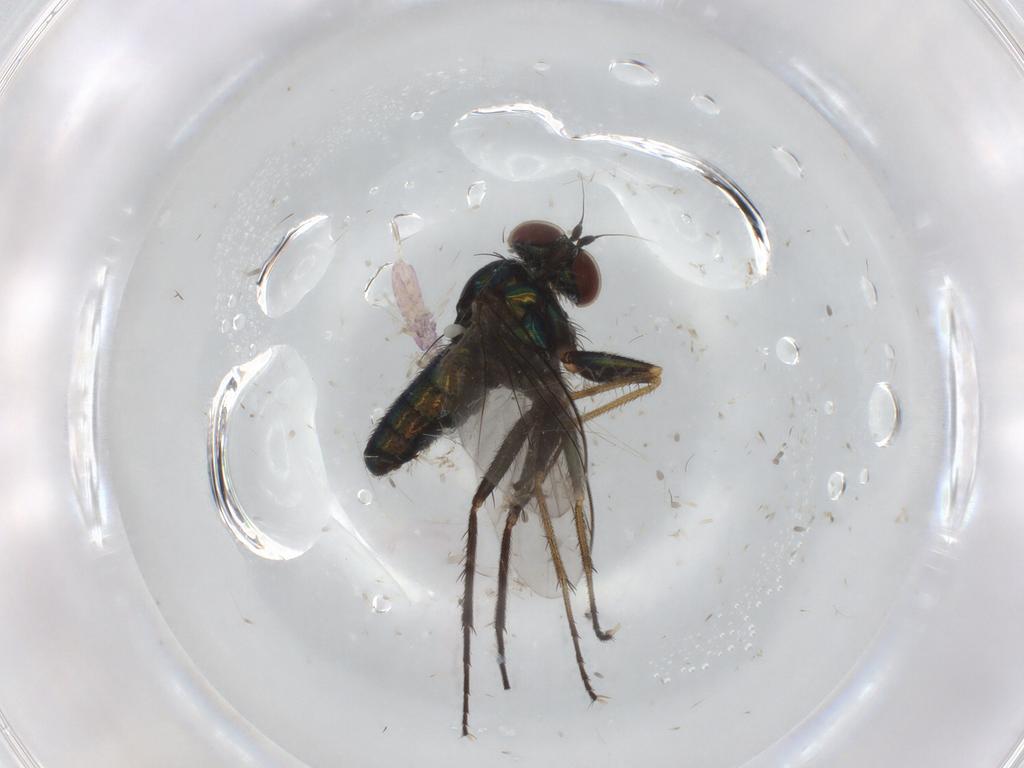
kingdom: Animalia
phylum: Arthropoda
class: Insecta
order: Diptera
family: Dolichopodidae
